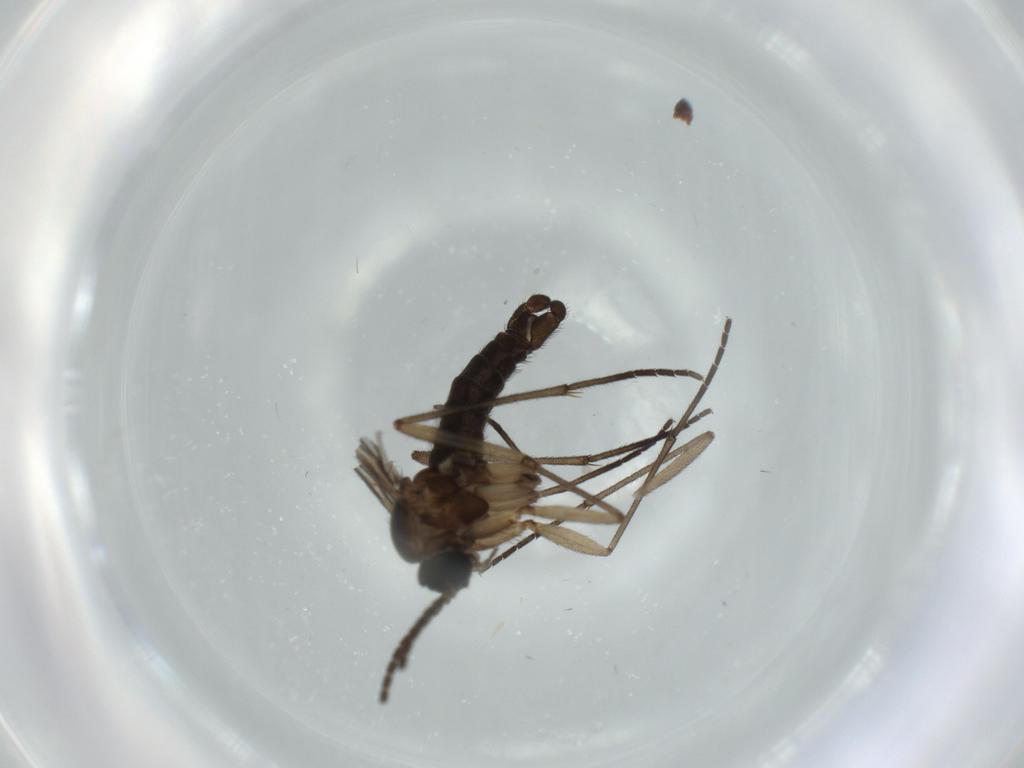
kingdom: Animalia
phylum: Arthropoda
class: Insecta
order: Diptera
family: Sciaridae
